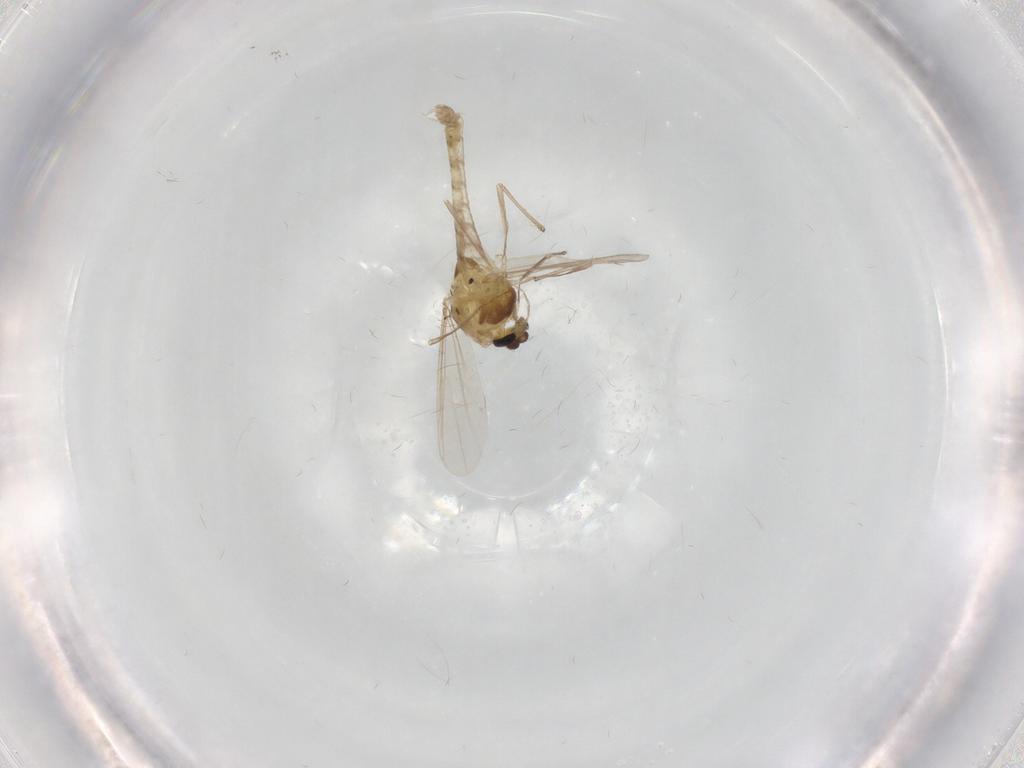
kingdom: Animalia
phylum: Arthropoda
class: Insecta
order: Diptera
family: Chironomidae
